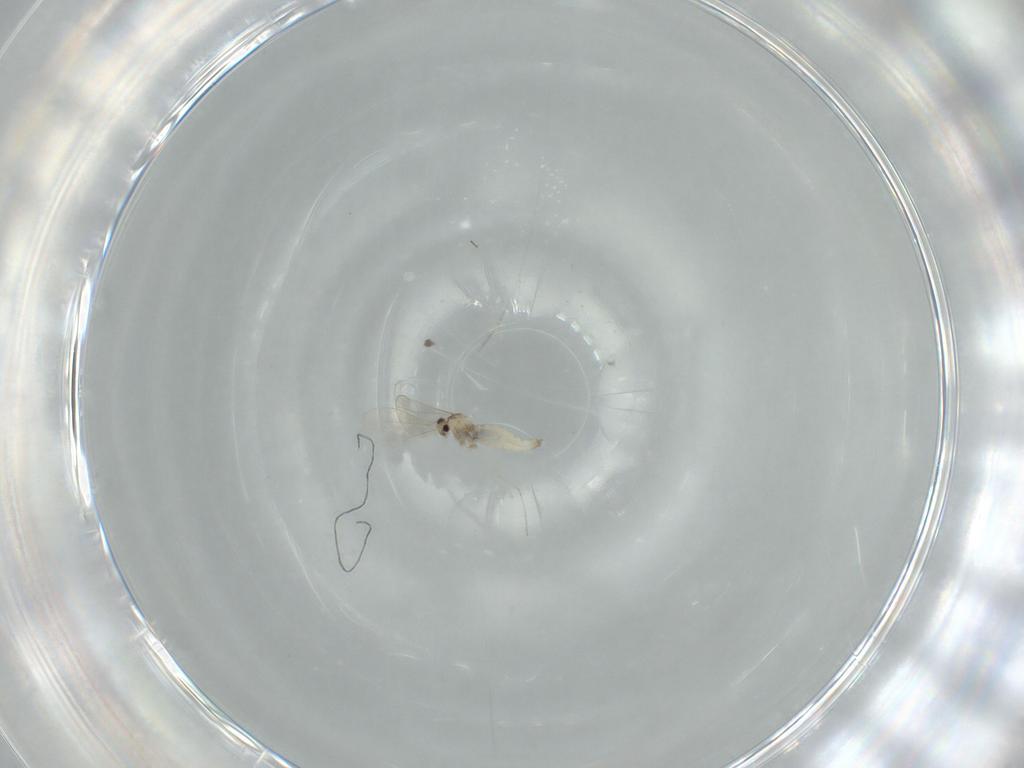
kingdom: Animalia
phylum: Arthropoda
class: Insecta
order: Diptera
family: Cecidomyiidae
